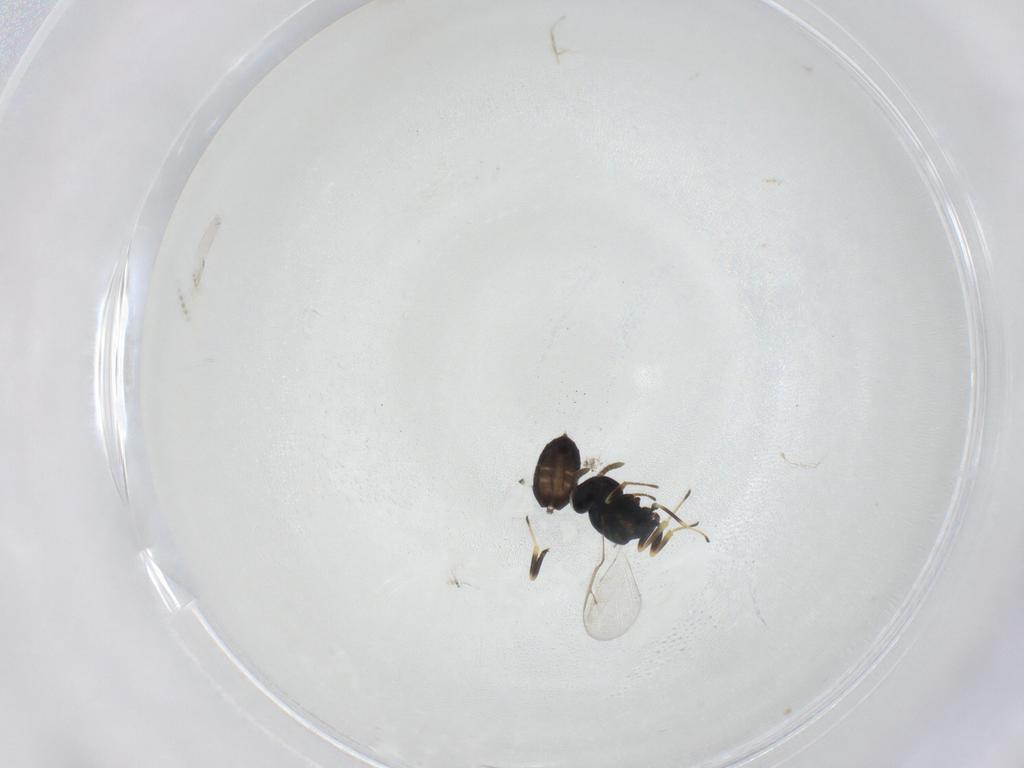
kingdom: Animalia
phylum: Arthropoda
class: Insecta
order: Hymenoptera
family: Pteromalidae
